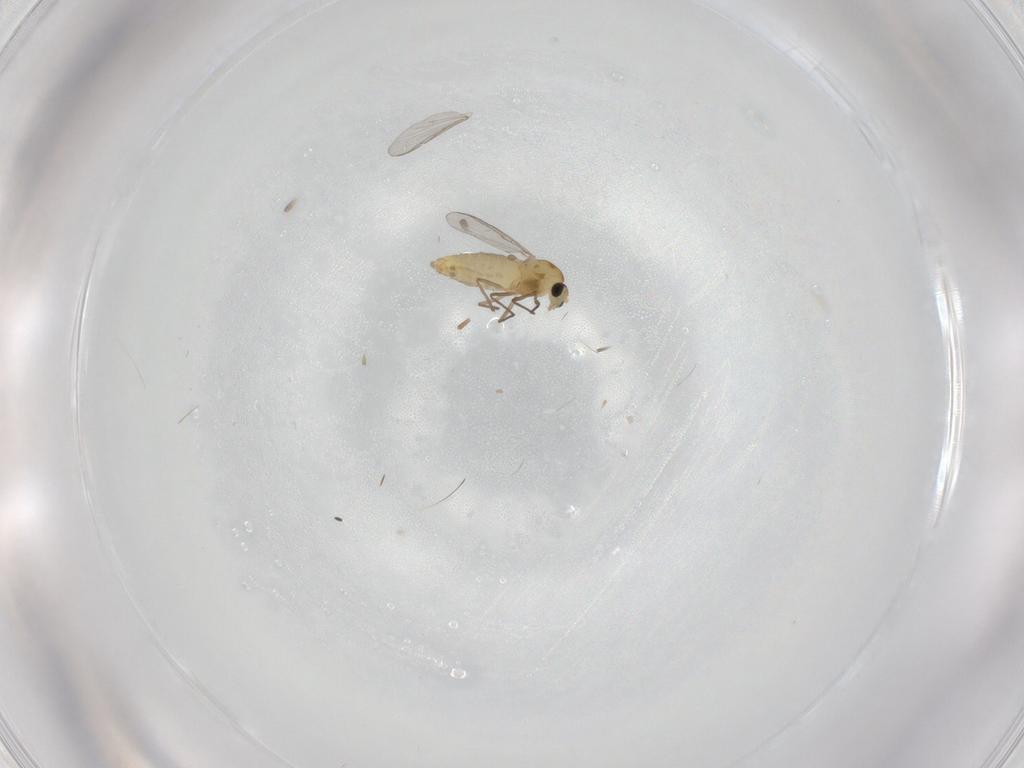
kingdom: Animalia
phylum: Arthropoda
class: Insecta
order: Diptera
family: Chironomidae
